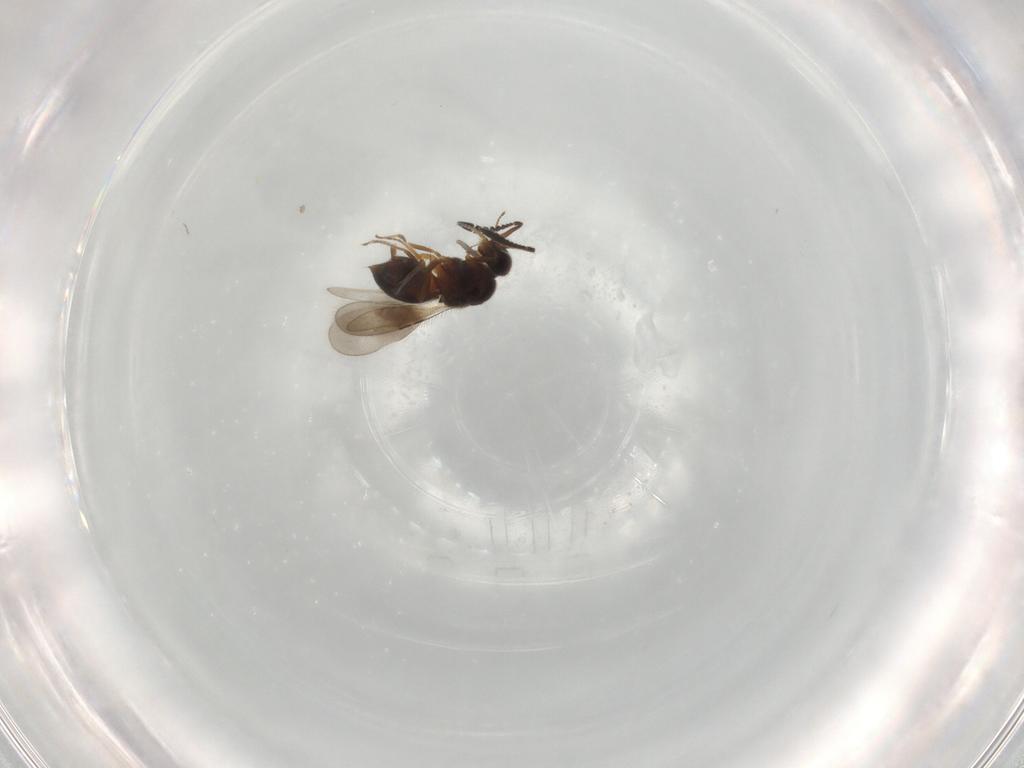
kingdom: Animalia
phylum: Arthropoda
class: Insecta
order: Hymenoptera
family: Ceraphronidae
